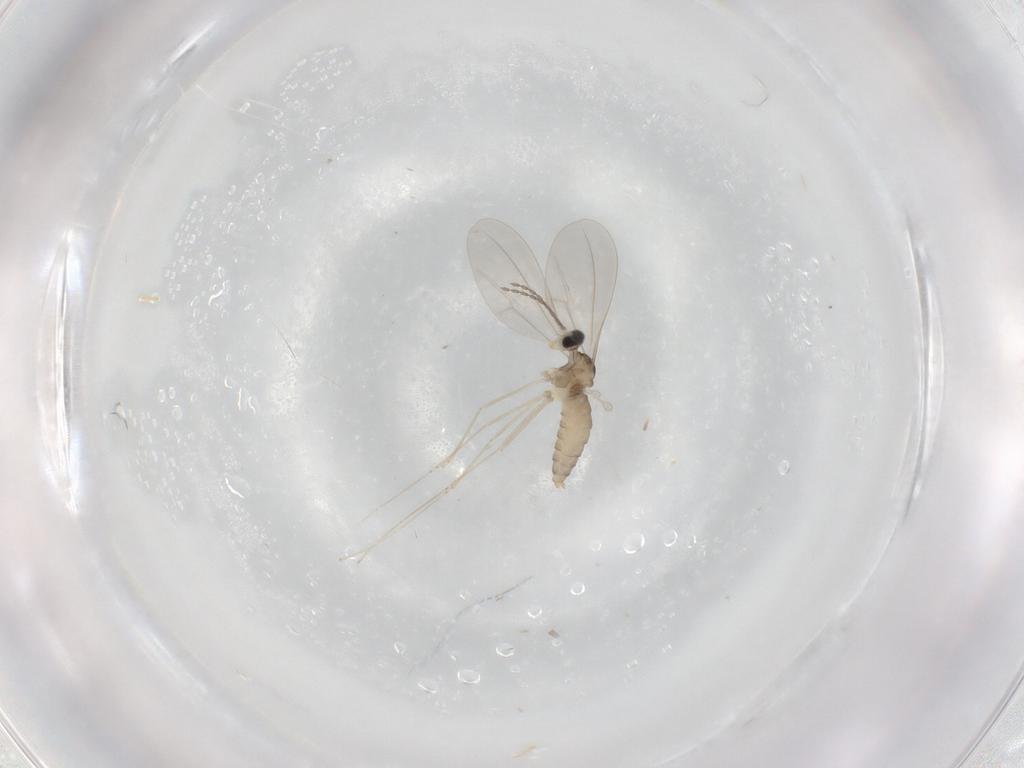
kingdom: Animalia
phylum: Arthropoda
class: Insecta
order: Diptera
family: Cecidomyiidae
